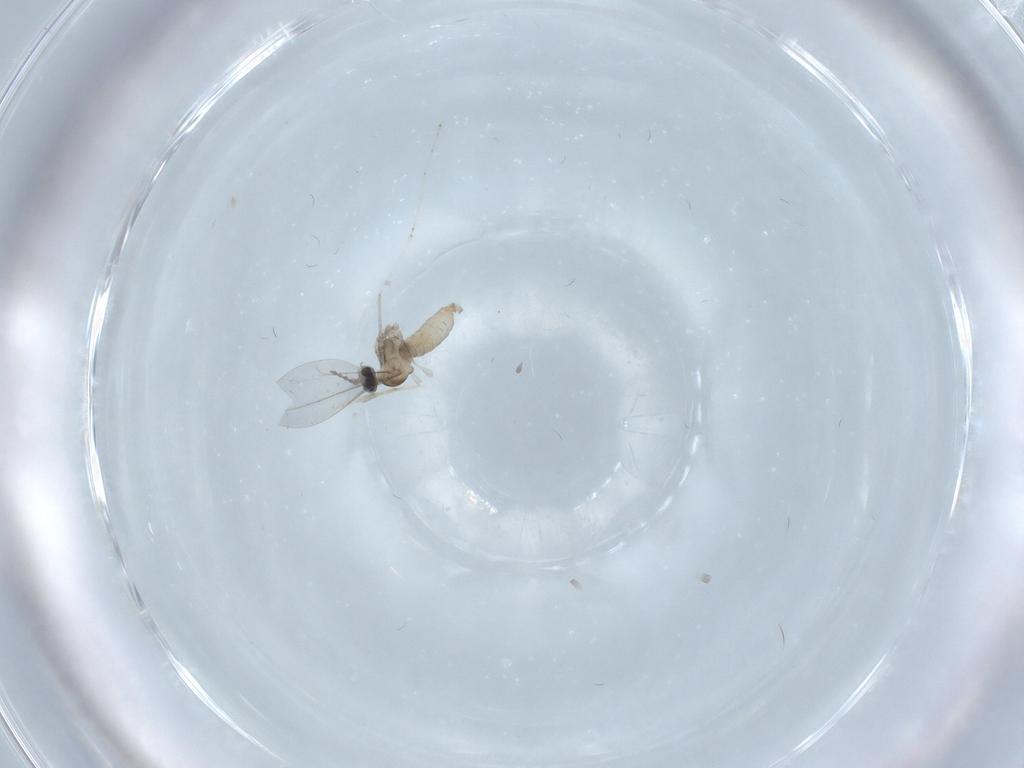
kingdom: Animalia
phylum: Arthropoda
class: Insecta
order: Diptera
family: Cecidomyiidae
